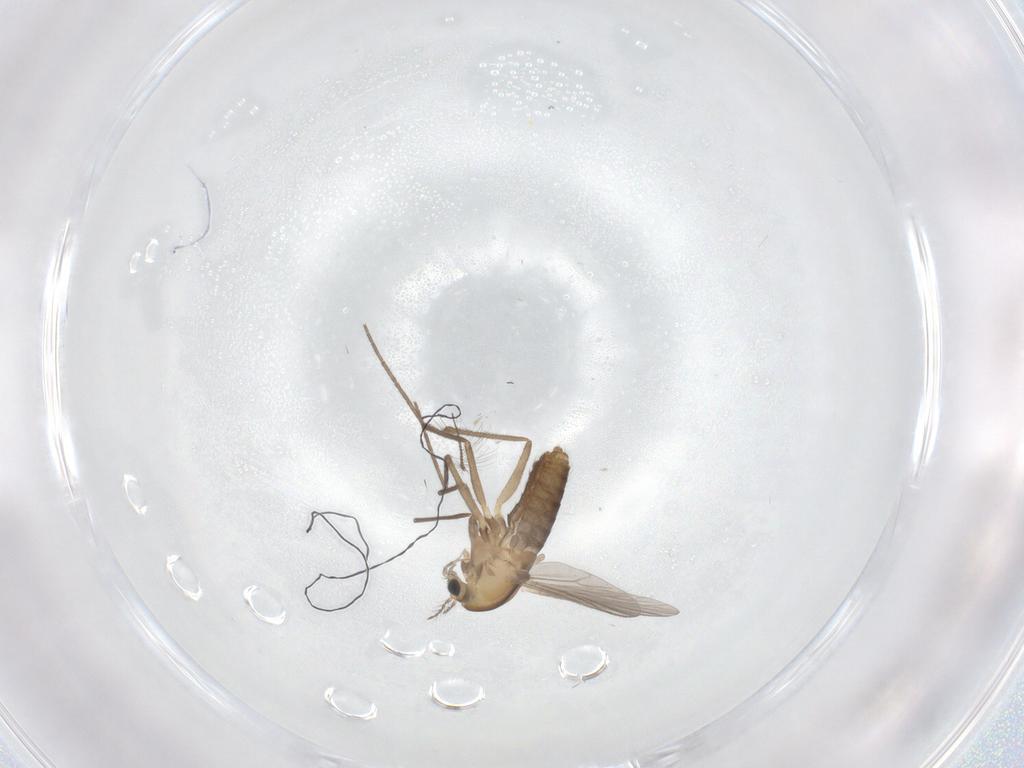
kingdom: Animalia
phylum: Arthropoda
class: Insecta
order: Diptera
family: Chironomidae
